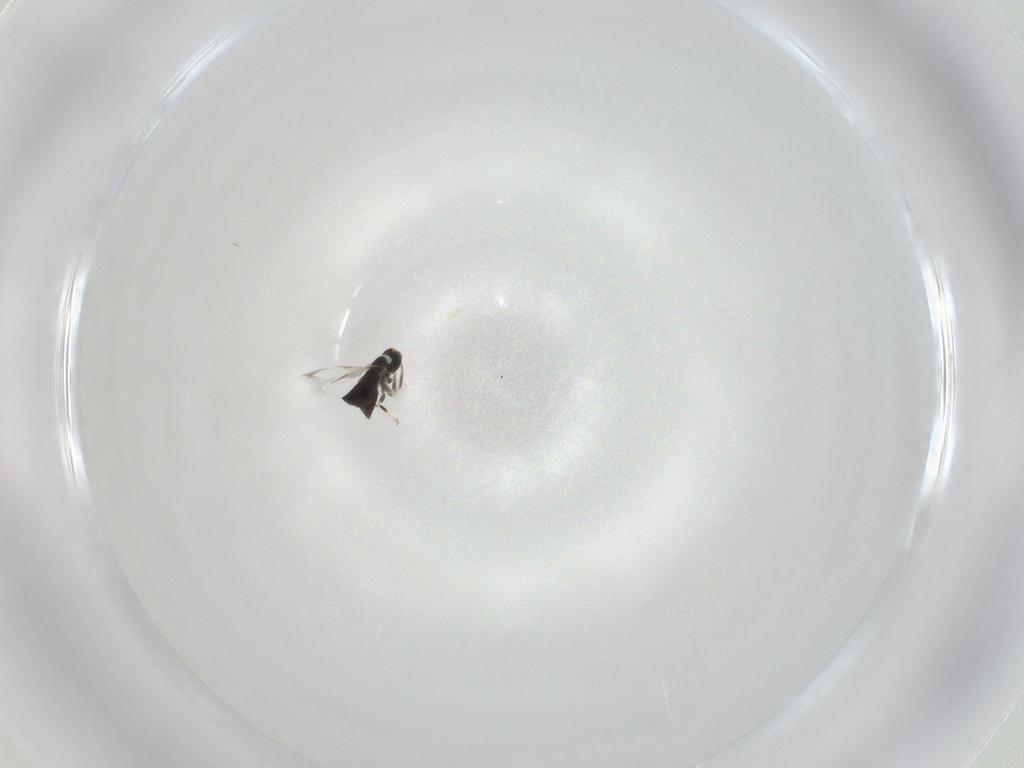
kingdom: Animalia
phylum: Arthropoda
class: Insecta
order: Hymenoptera
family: Signiphoridae
